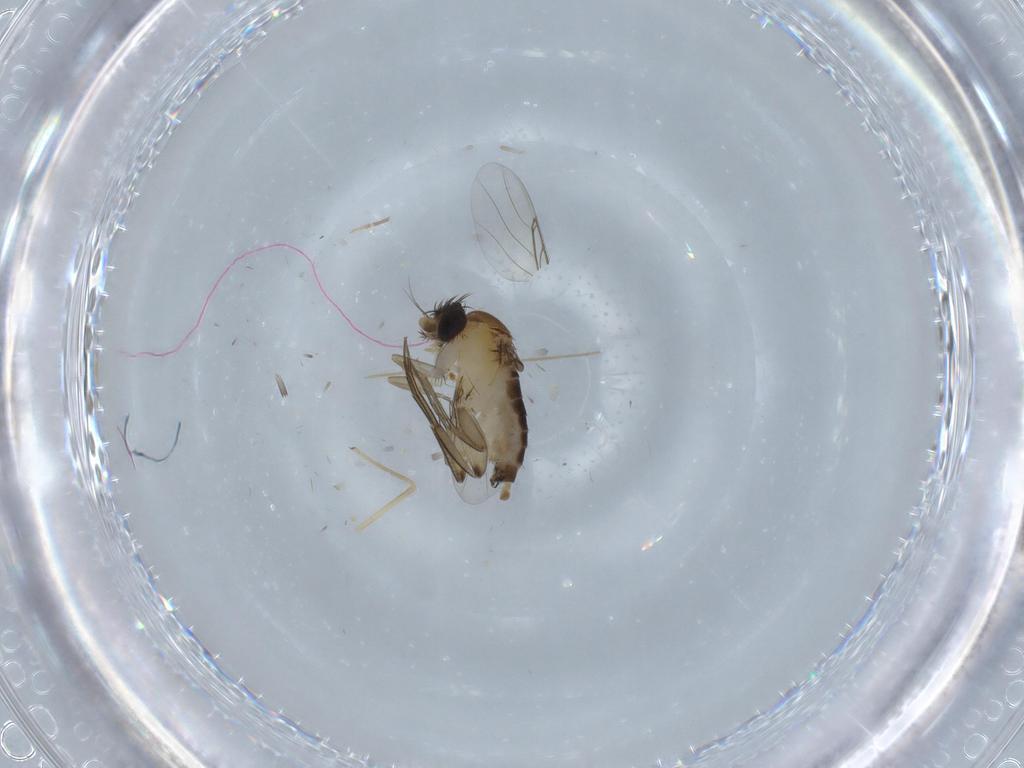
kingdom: Animalia
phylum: Arthropoda
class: Insecta
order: Diptera
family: Chironomidae
